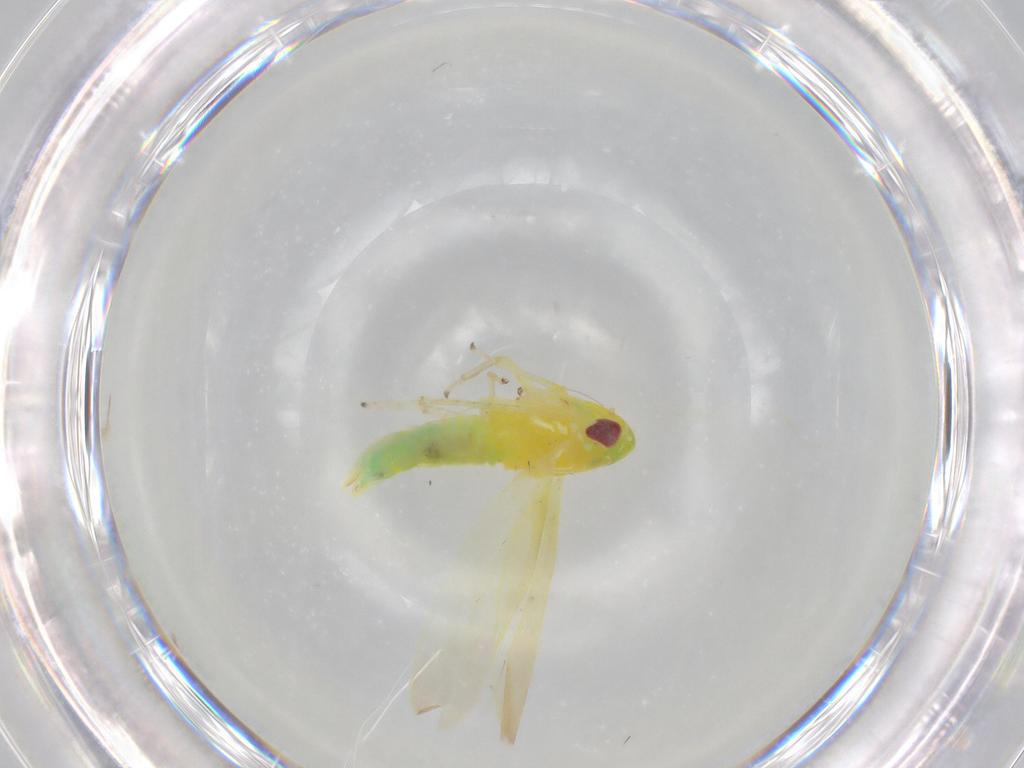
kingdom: Animalia
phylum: Arthropoda
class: Insecta
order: Hemiptera
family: Cicadellidae
